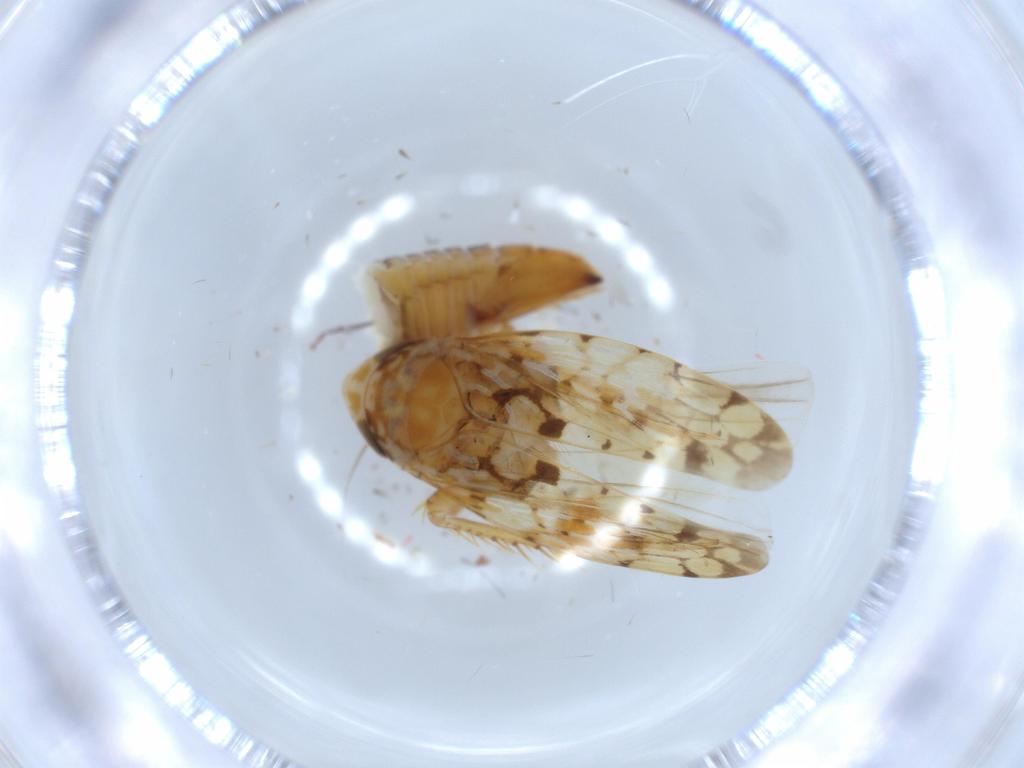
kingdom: Animalia
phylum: Arthropoda
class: Insecta
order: Hemiptera
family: Cicadellidae
